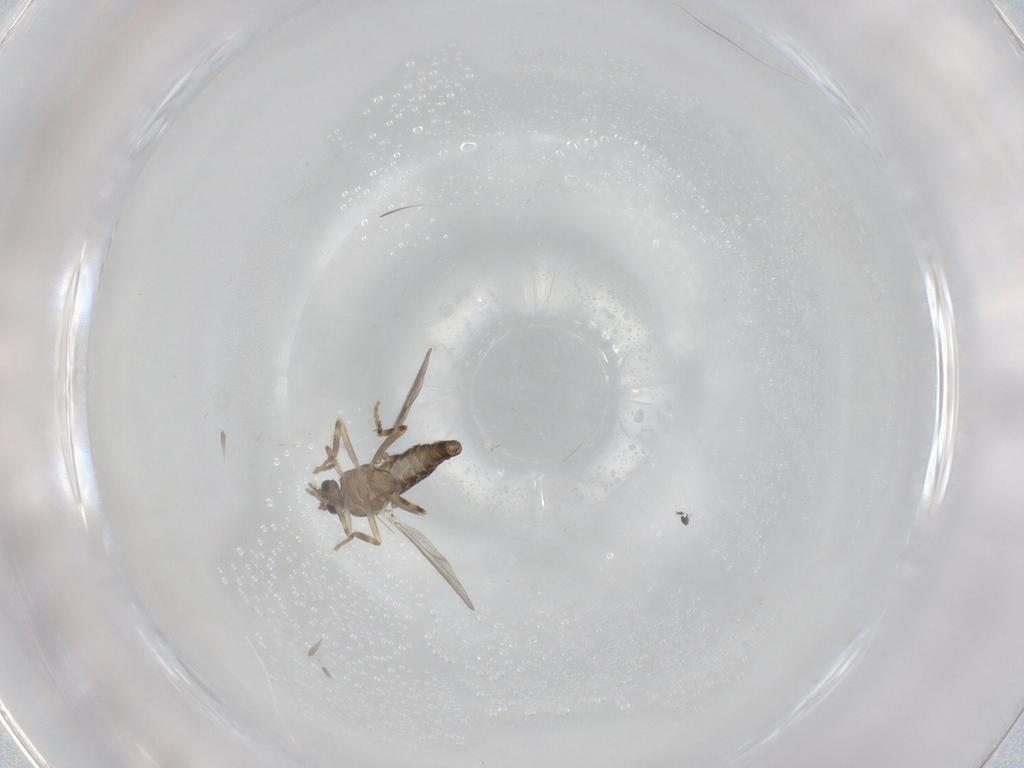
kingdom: Animalia
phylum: Arthropoda
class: Insecta
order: Diptera
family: Ceratopogonidae
